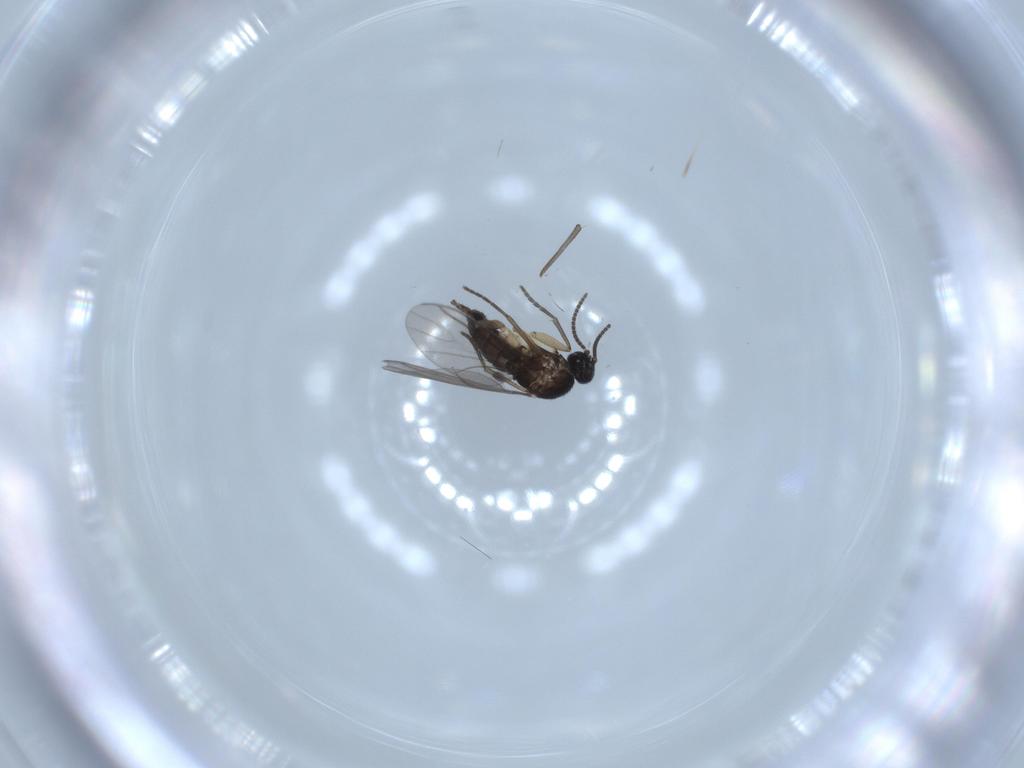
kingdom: Animalia
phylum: Arthropoda
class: Insecta
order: Diptera
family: Sciaridae
